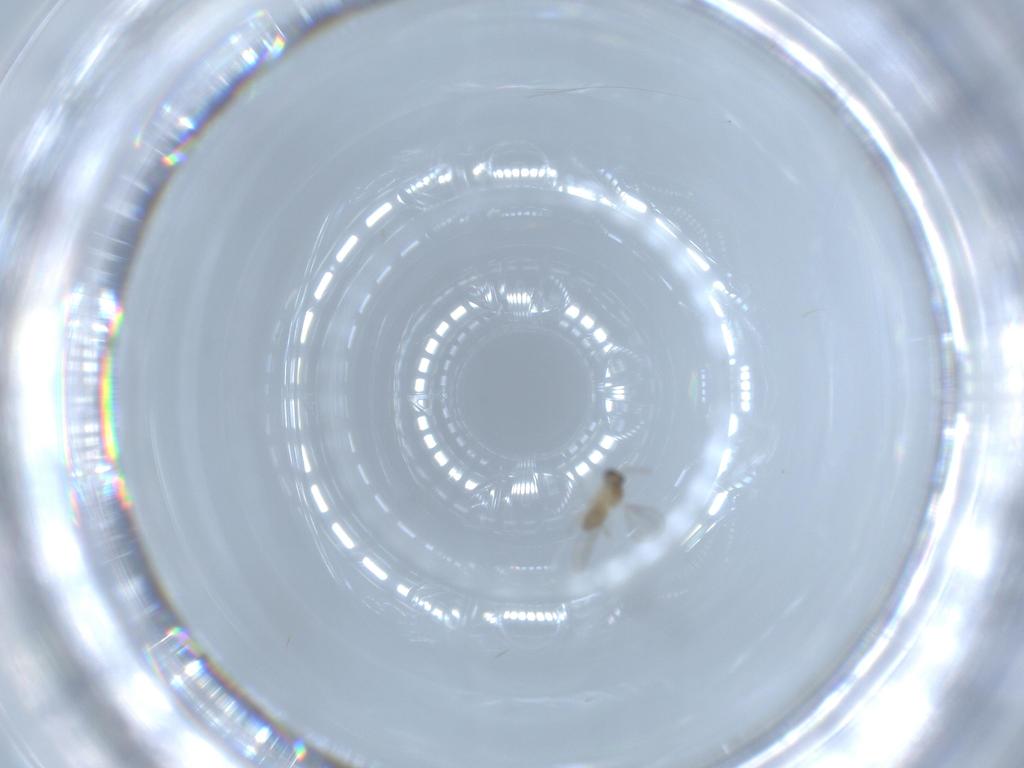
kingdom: Animalia
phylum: Arthropoda
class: Insecta
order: Diptera
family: Cecidomyiidae
